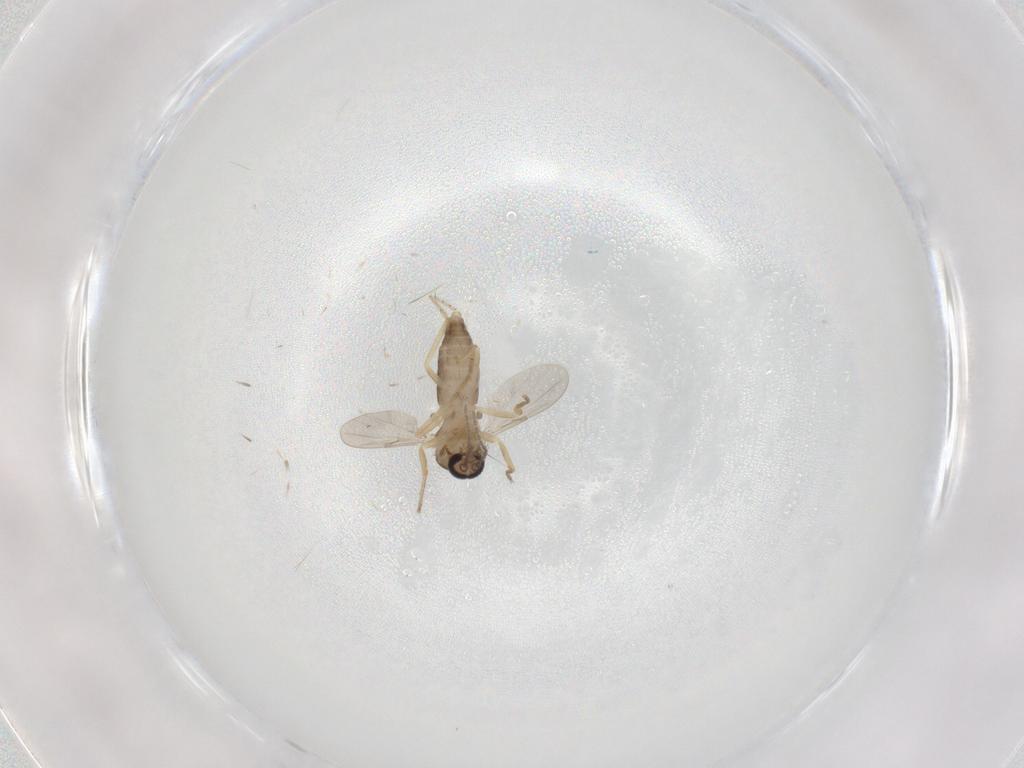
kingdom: Animalia
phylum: Arthropoda
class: Insecta
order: Diptera
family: Ceratopogonidae
